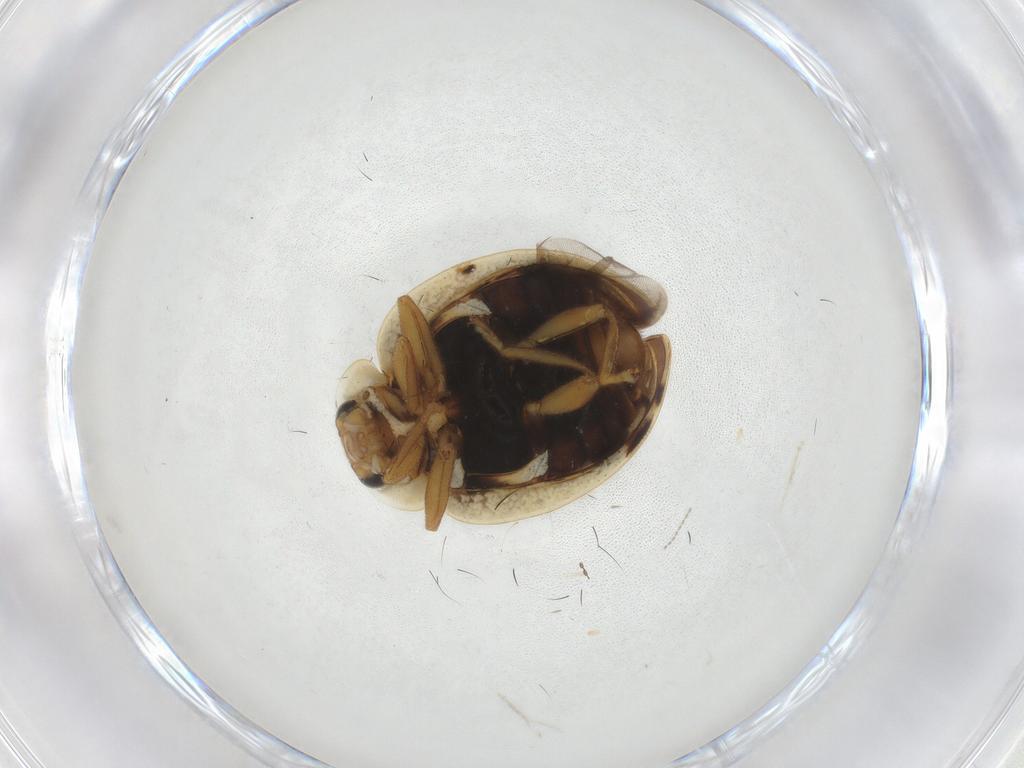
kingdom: Animalia
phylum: Arthropoda
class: Insecta
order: Coleoptera
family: Coccinellidae
